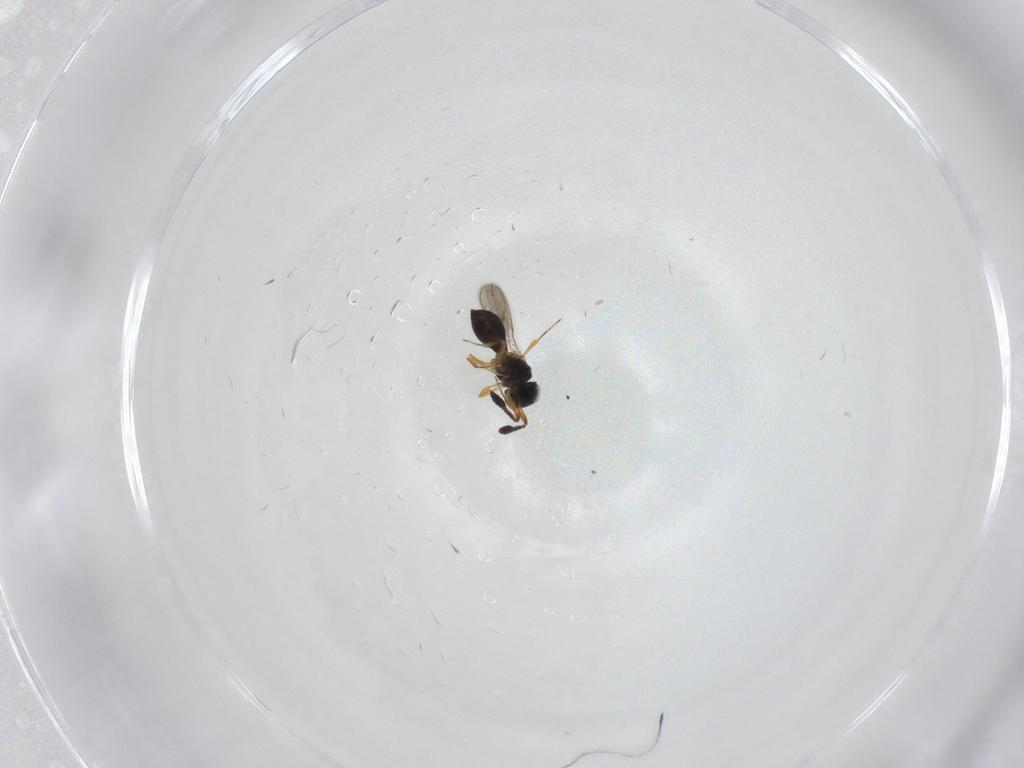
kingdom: Animalia
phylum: Arthropoda
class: Insecta
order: Hymenoptera
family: Scelionidae
